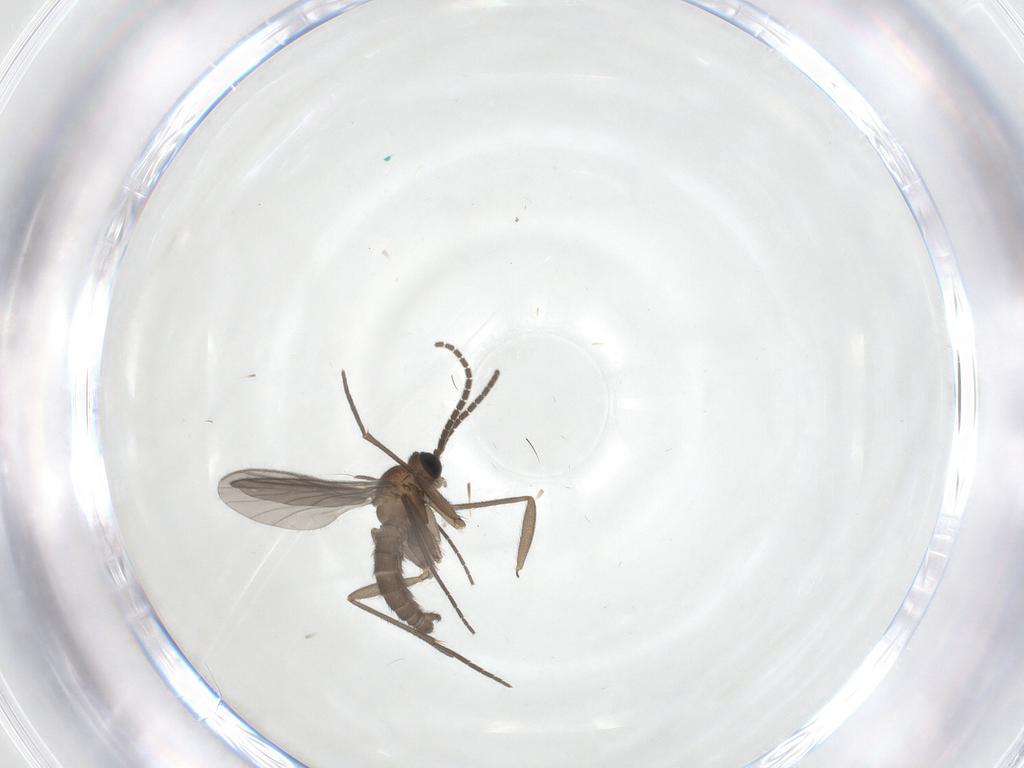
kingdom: Animalia
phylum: Arthropoda
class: Insecta
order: Diptera
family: Sciaridae
